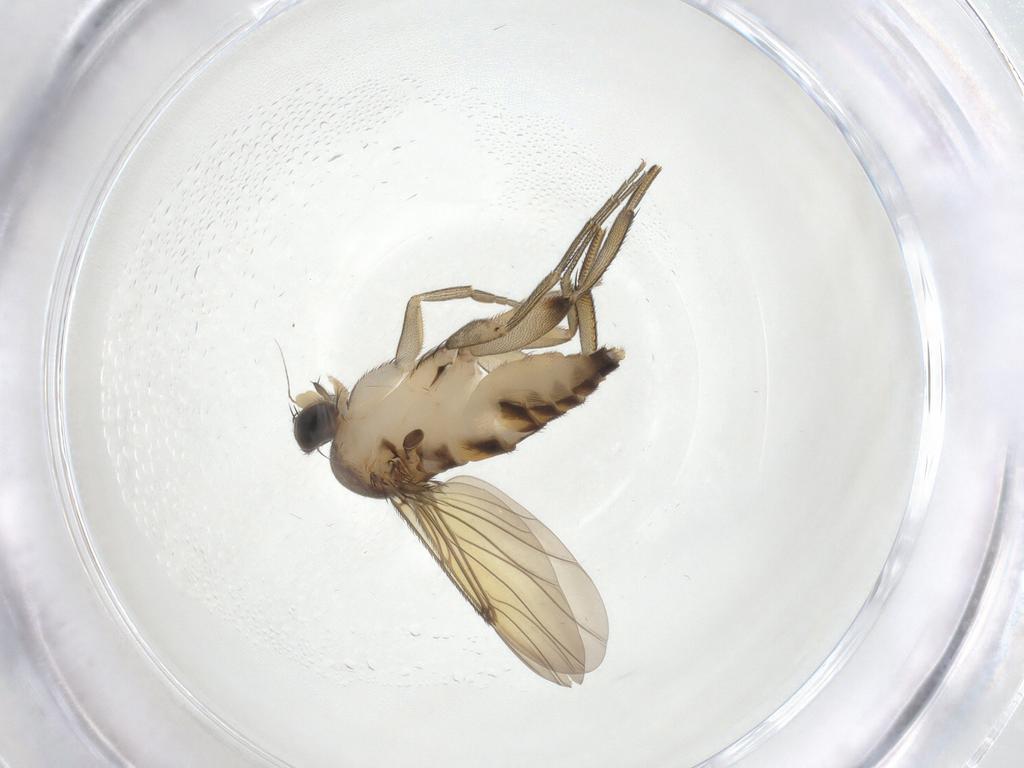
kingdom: Animalia
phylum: Arthropoda
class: Insecta
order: Diptera
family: Phoridae
